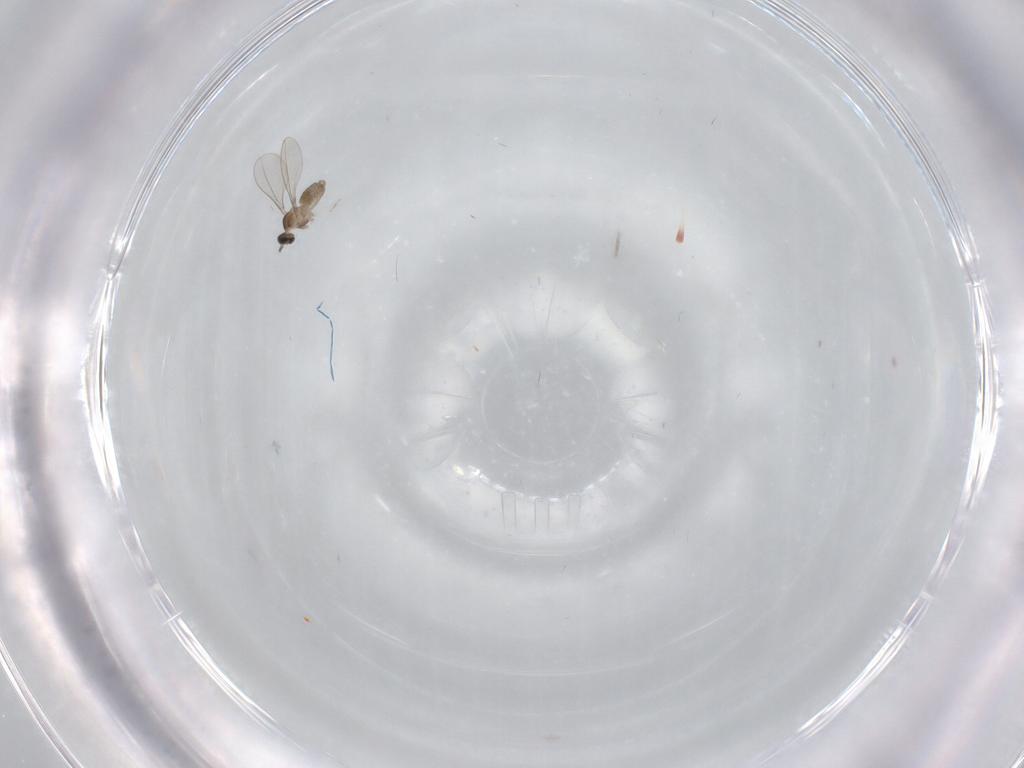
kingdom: Animalia
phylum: Arthropoda
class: Insecta
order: Diptera
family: Cecidomyiidae
